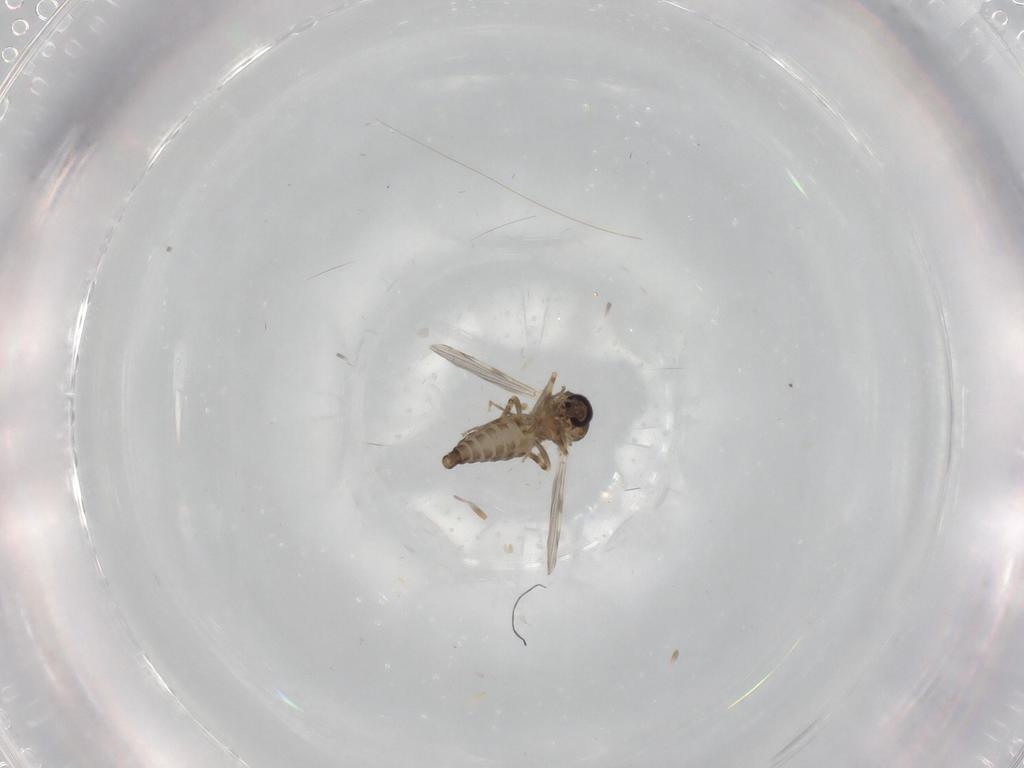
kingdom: Animalia
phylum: Arthropoda
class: Insecta
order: Diptera
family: Ceratopogonidae
